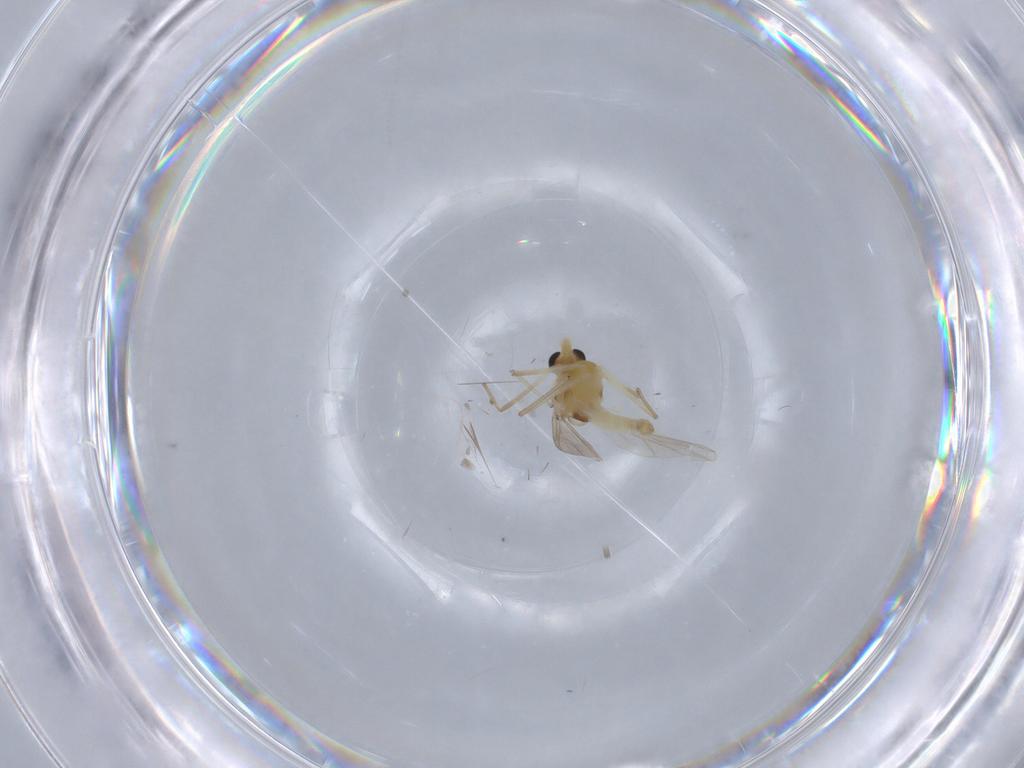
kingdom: Animalia
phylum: Arthropoda
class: Insecta
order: Diptera
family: Chironomidae
